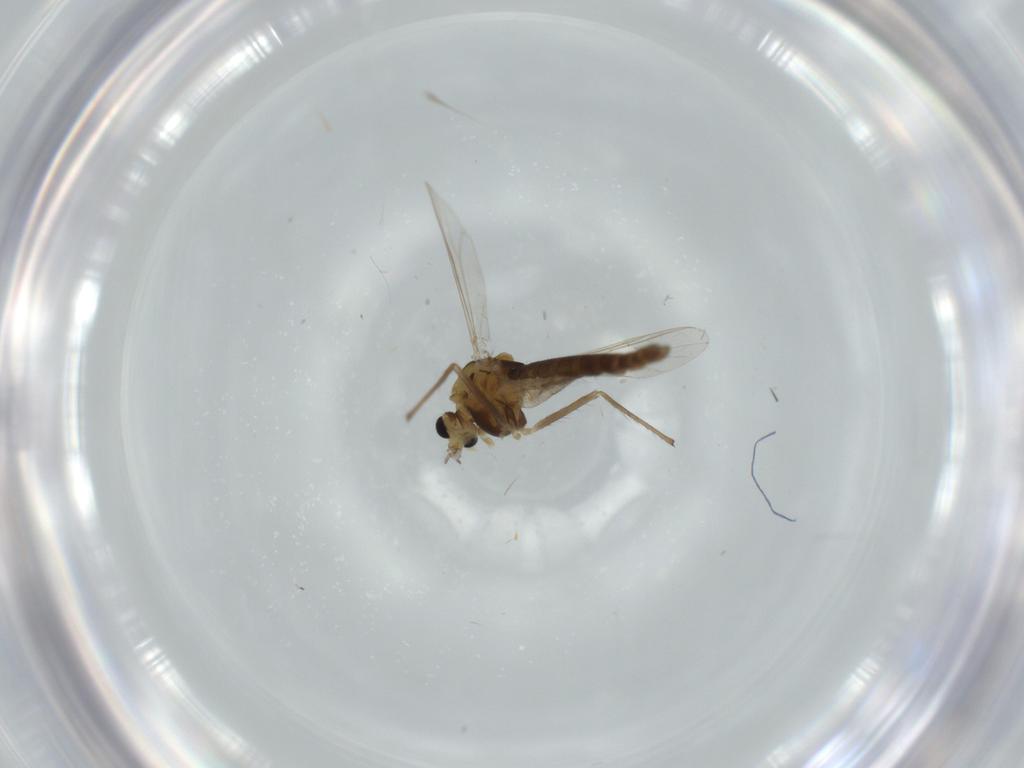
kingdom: Animalia
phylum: Arthropoda
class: Insecta
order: Diptera
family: Chironomidae
